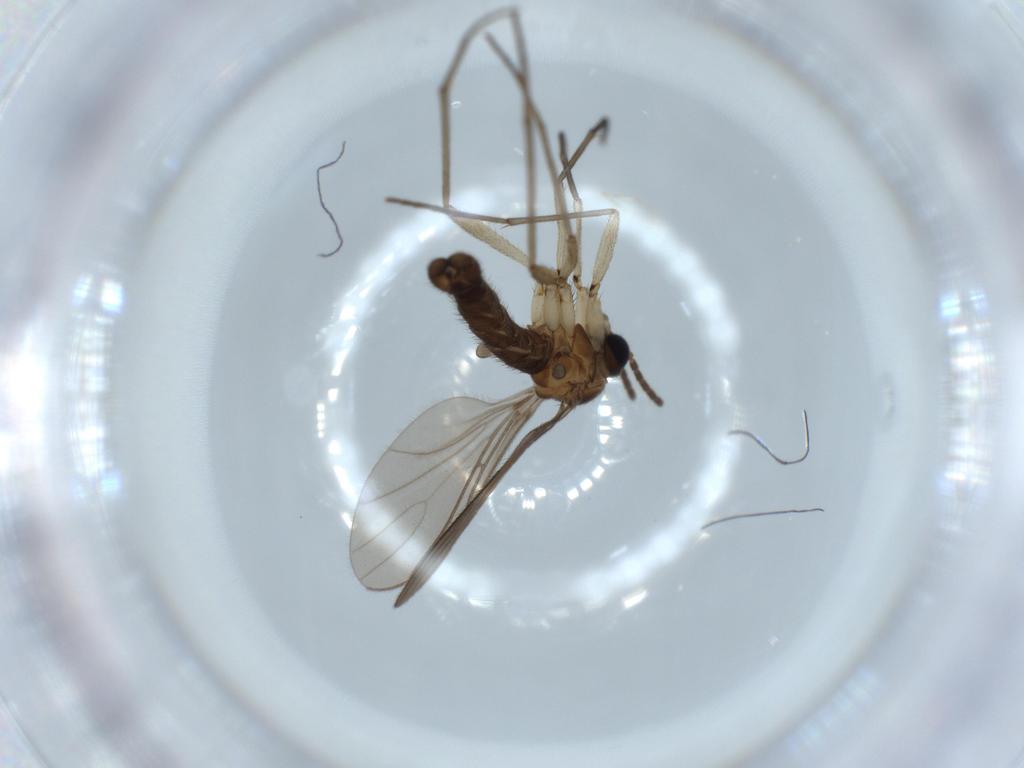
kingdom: Animalia
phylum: Arthropoda
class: Insecta
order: Diptera
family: Sciaridae
